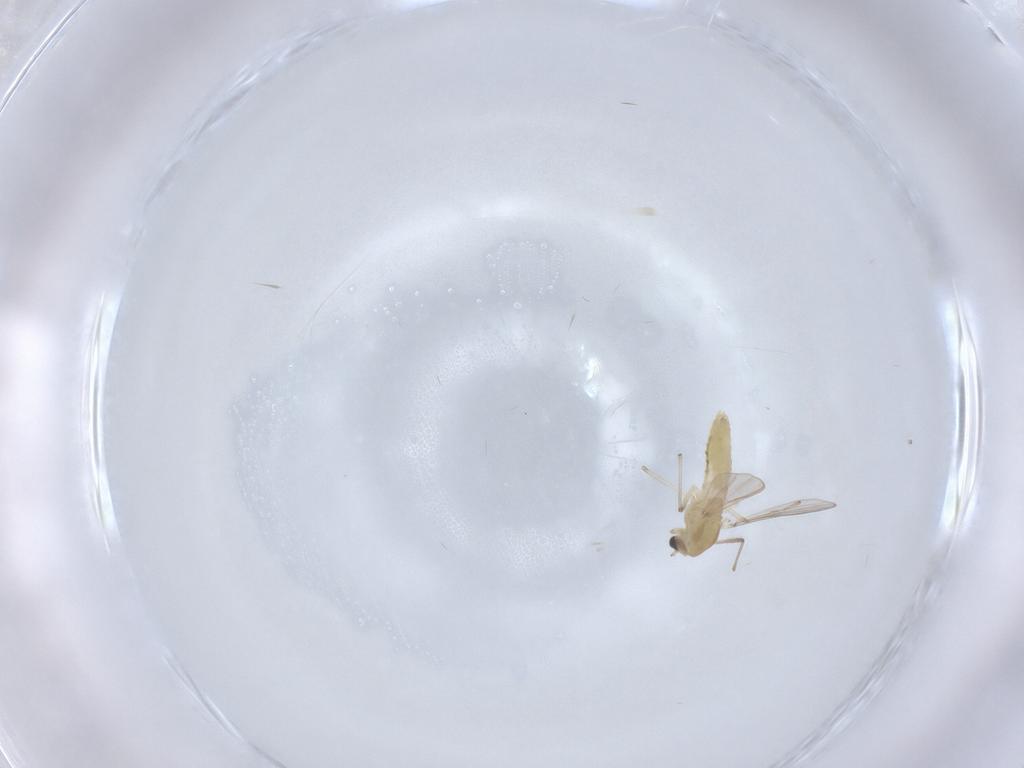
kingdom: Animalia
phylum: Arthropoda
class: Insecta
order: Diptera
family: Chironomidae
